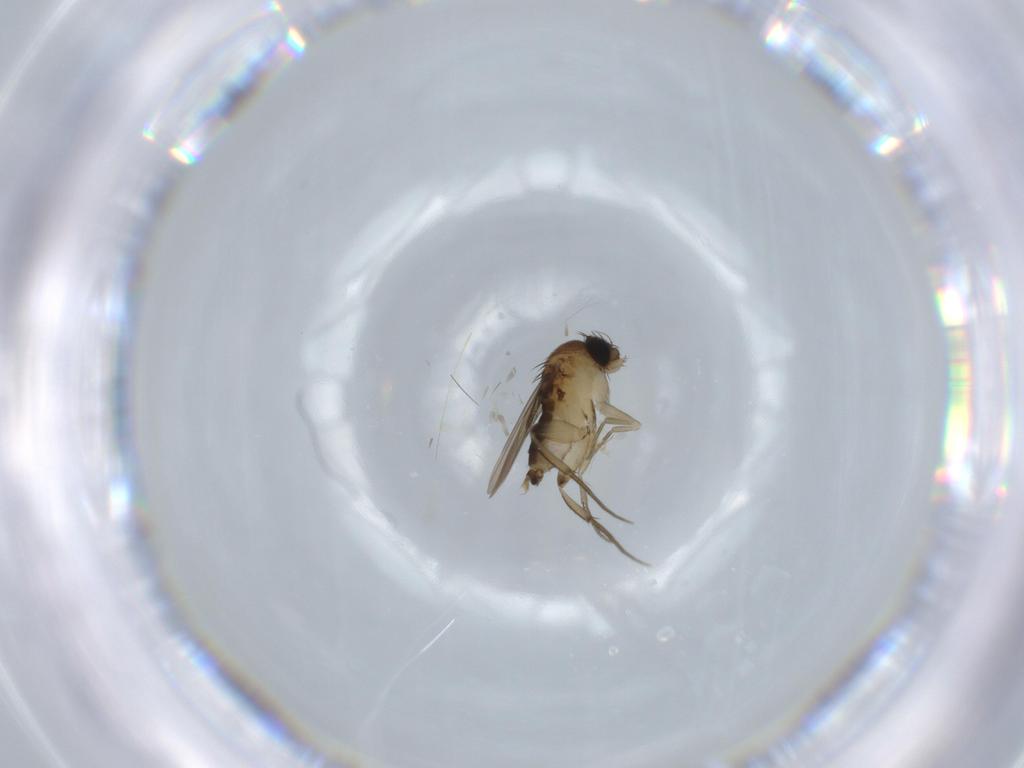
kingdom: Animalia
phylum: Arthropoda
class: Insecta
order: Diptera
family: Phoridae
